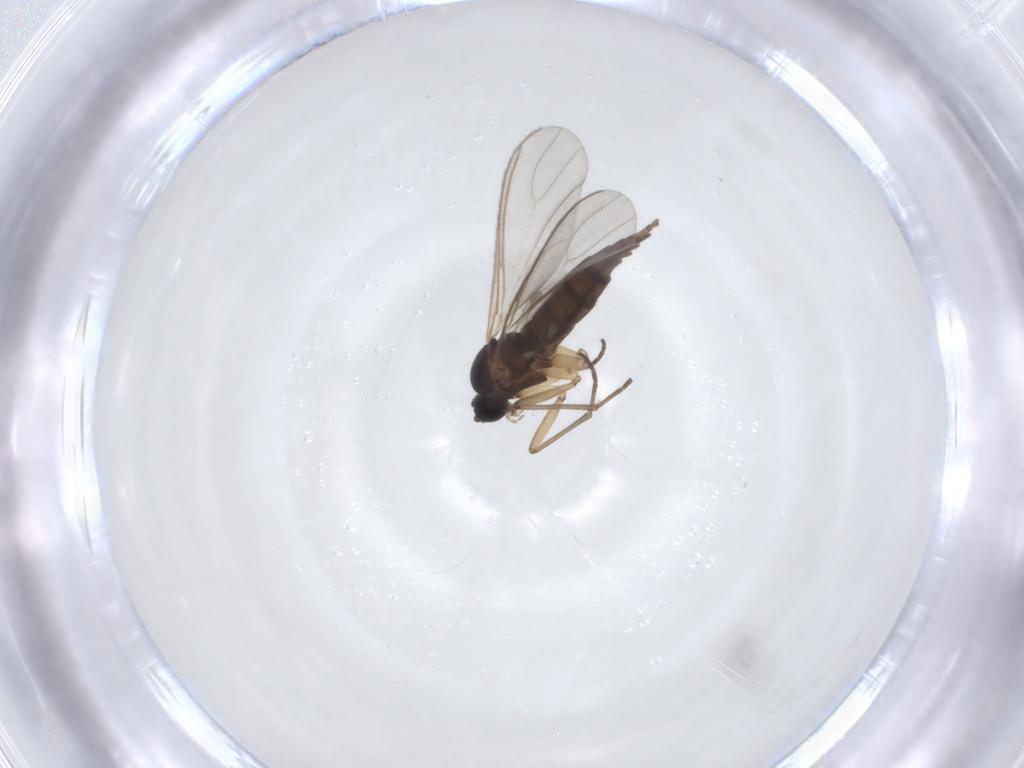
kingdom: Animalia
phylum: Arthropoda
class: Insecta
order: Diptera
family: Sciaridae
